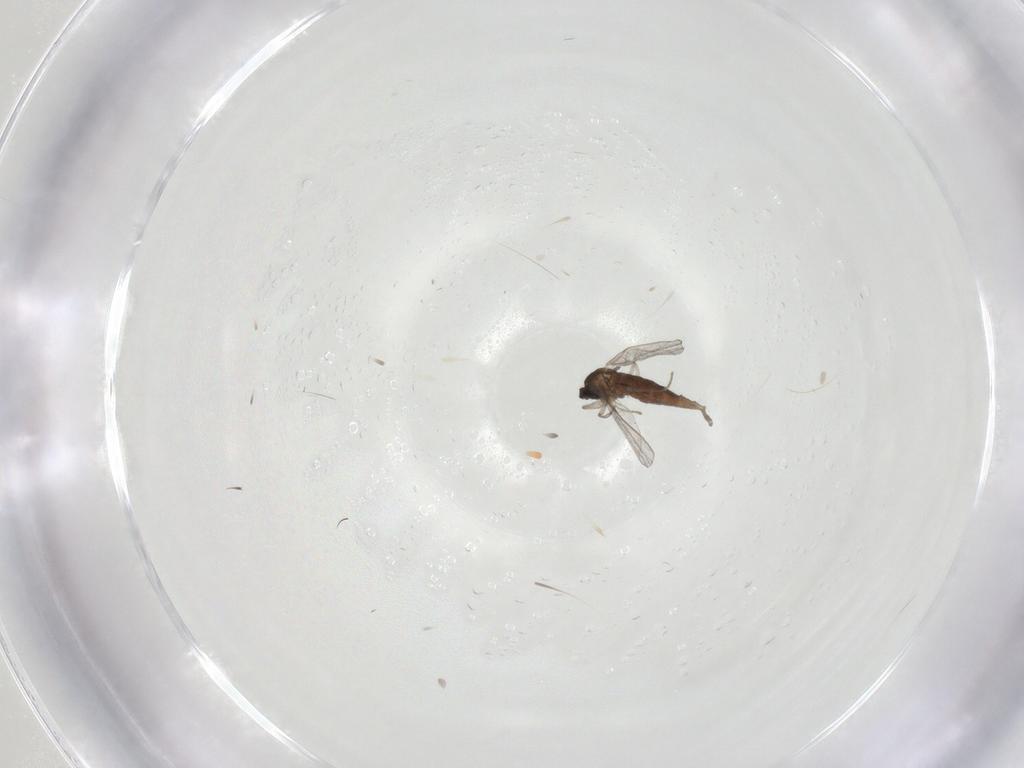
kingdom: Animalia
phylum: Arthropoda
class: Insecta
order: Diptera
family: Cecidomyiidae
